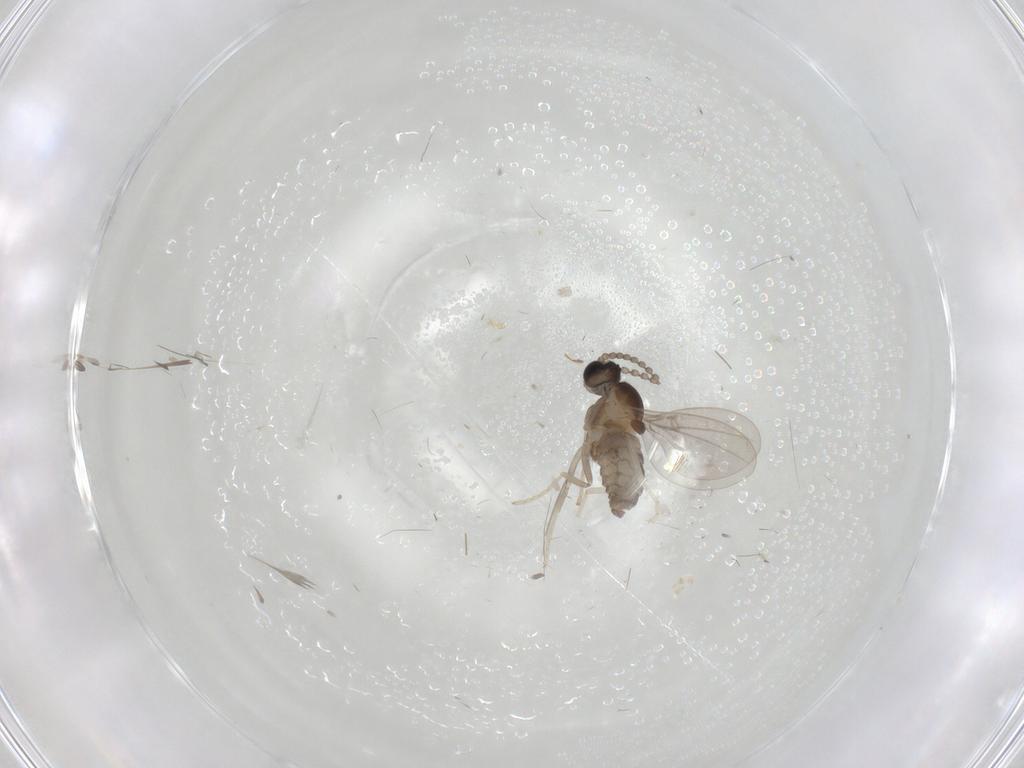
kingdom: Animalia
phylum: Arthropoda
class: Insecta
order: Diptera
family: Cecidomyiidae
